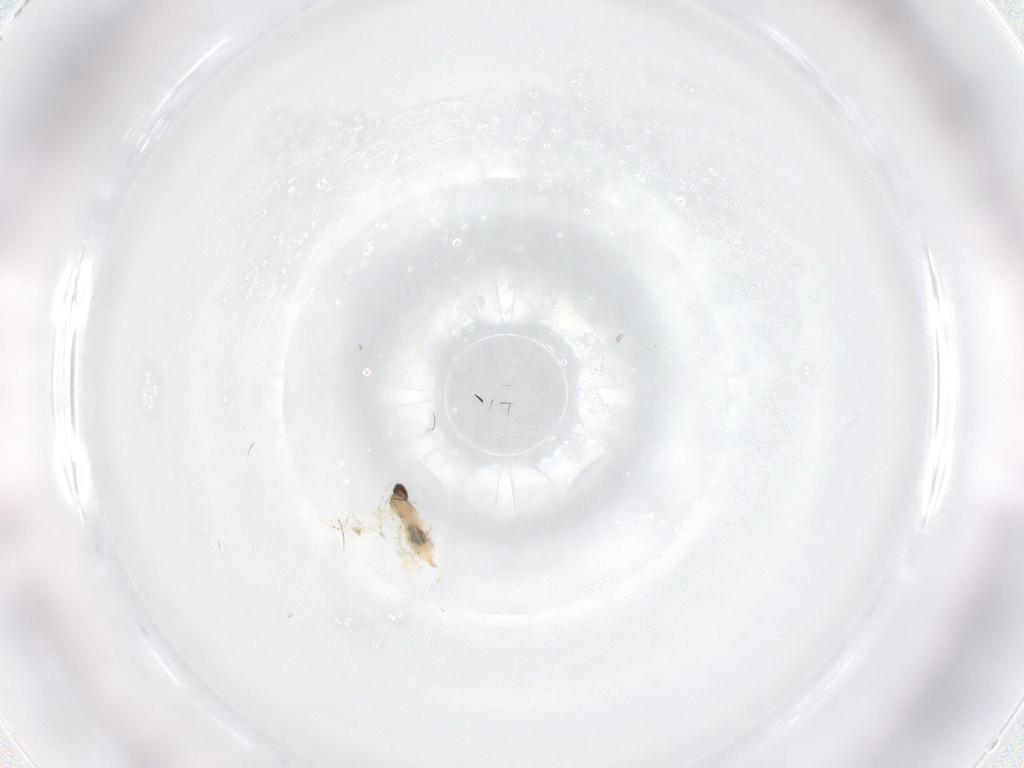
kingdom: Animalia
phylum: Arthropoda
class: Insecta
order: Diptera
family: Cecidomyiidae
